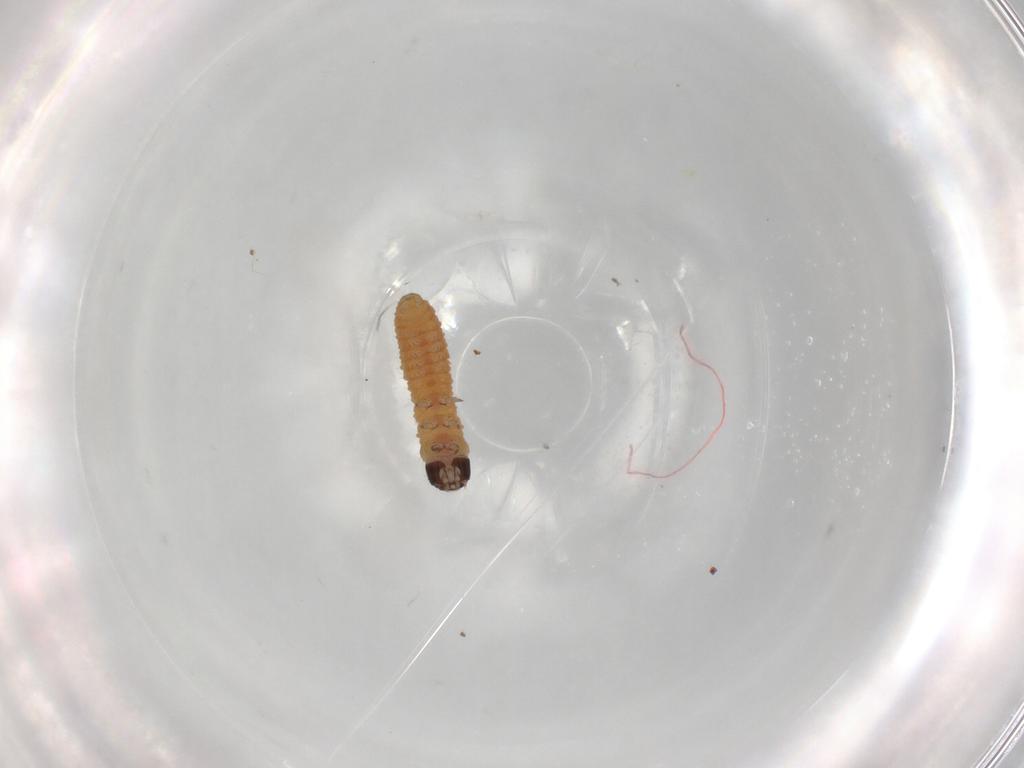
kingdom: Animalia
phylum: Arthropoda
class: Insecta
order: Lepidoptera
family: Tortricidae
